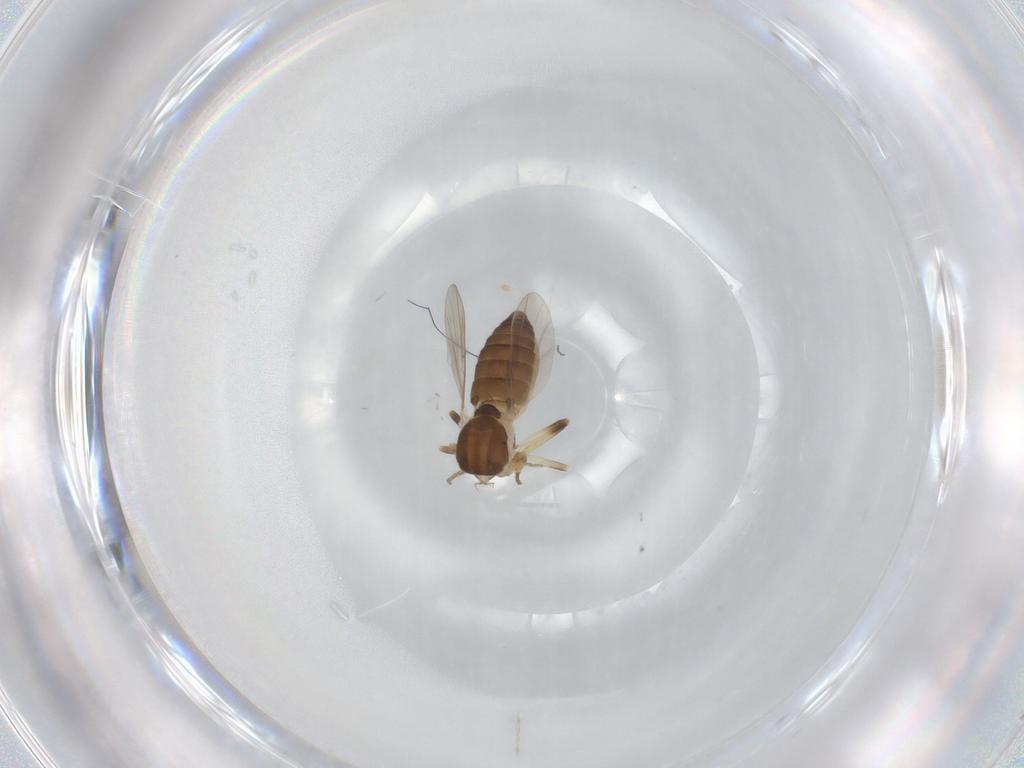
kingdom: Animalia
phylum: Arthropoda
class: Insecta
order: Diptera
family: Ceratopogonidae
